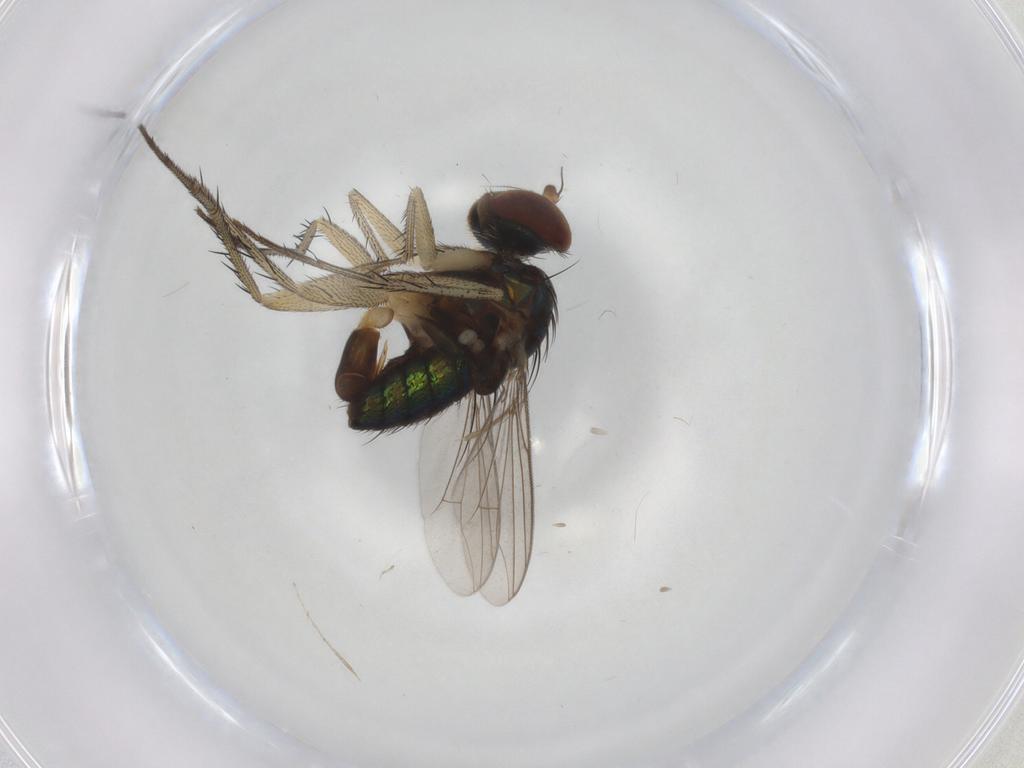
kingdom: Animalia
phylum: Arthropoda
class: Insecta
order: Diptera
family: Dolichopodidae
